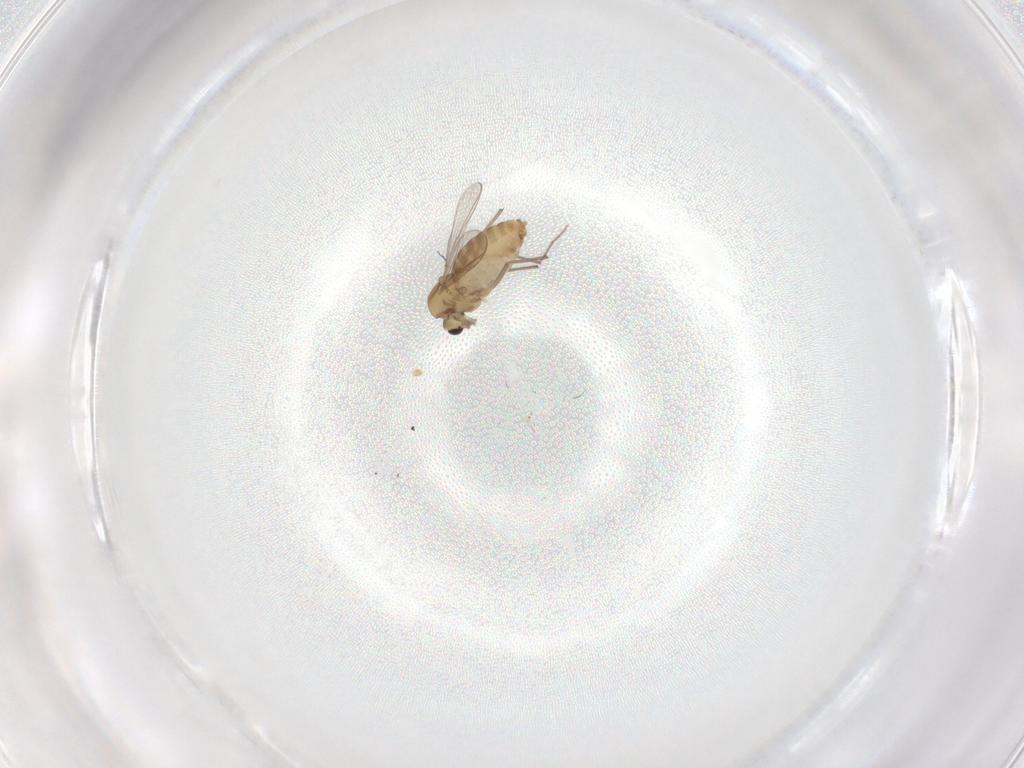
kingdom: Animalia
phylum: Arthropoda
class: Insecta
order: Diptera
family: Chironomidae
